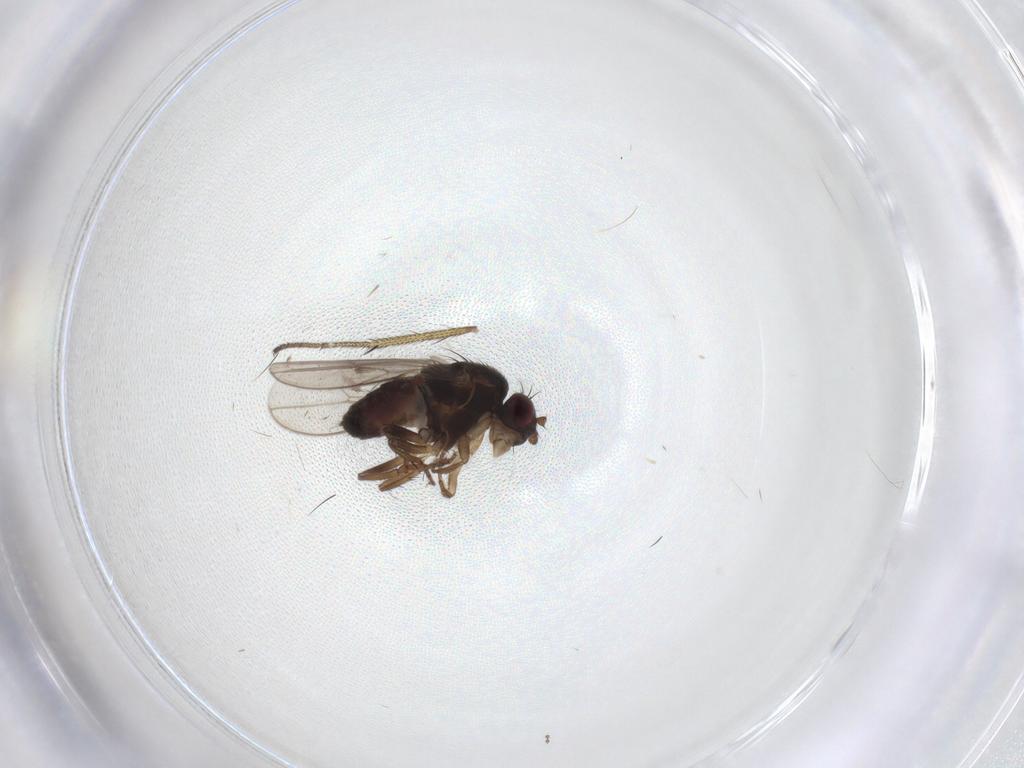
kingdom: Animalia
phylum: Arthropoda
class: Insecta
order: Diptera
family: Sphaeroceridae
